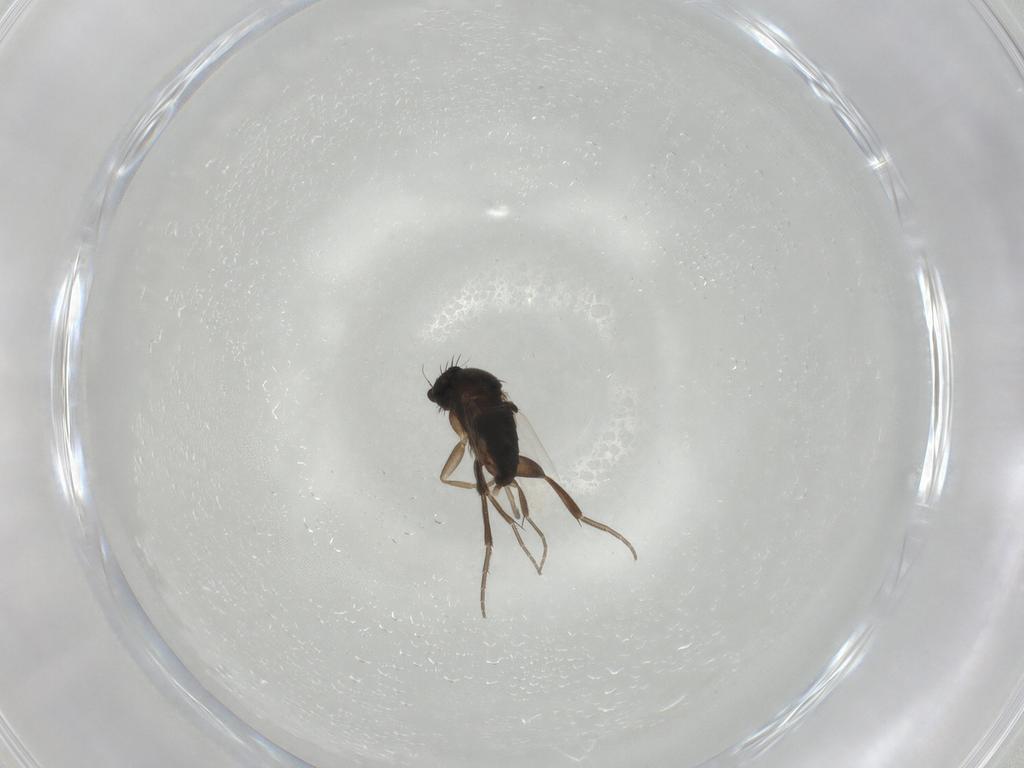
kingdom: Animalia
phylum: Arthropoda
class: Insecta
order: Diptera
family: Phoridae
